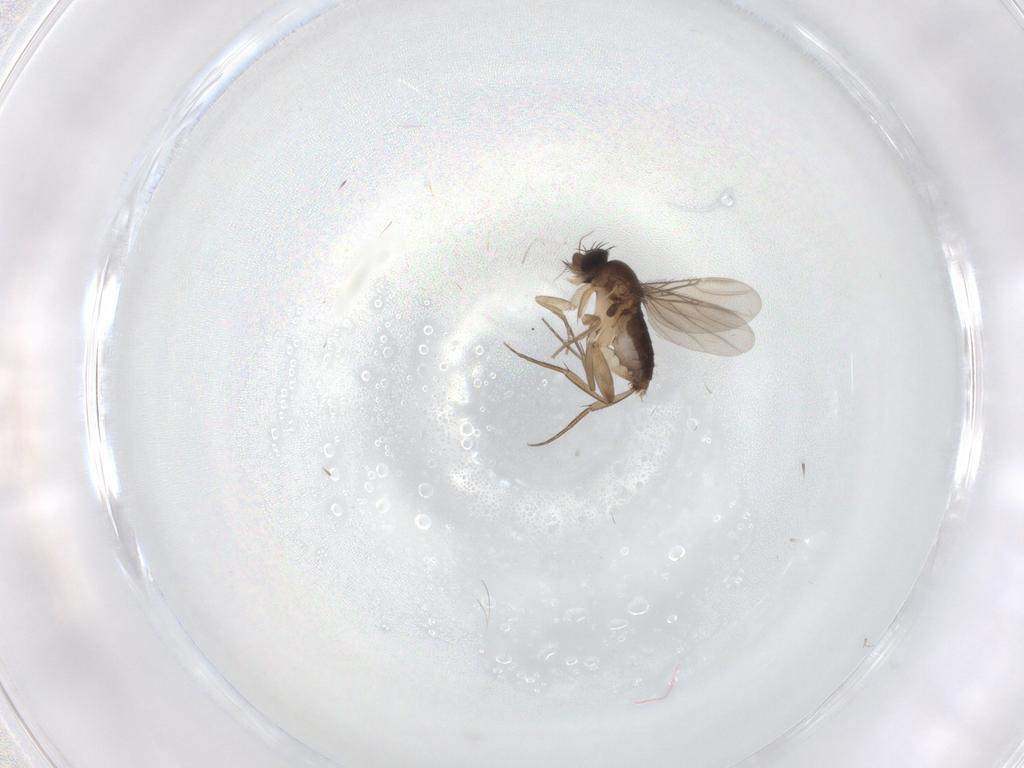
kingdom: Animalia
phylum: Arthropoda
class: Insecta
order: Diptera
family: Phoridae
